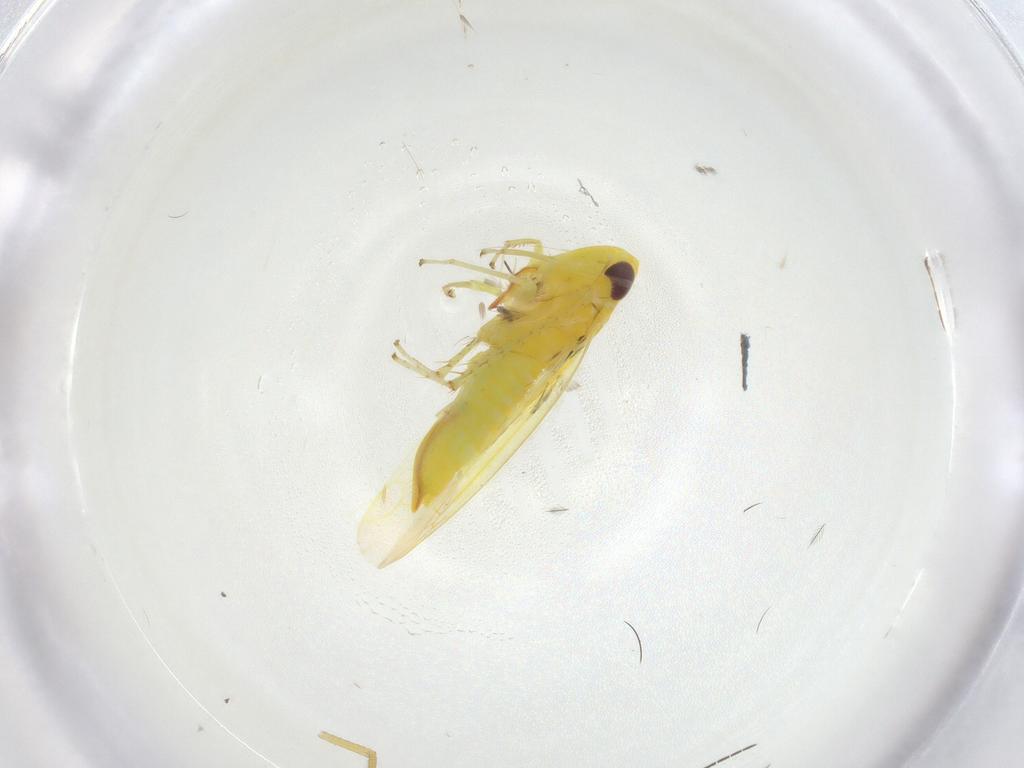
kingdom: Animalia
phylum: Arthropoda
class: Insecta
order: Hemiptera
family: Cicadellidae
